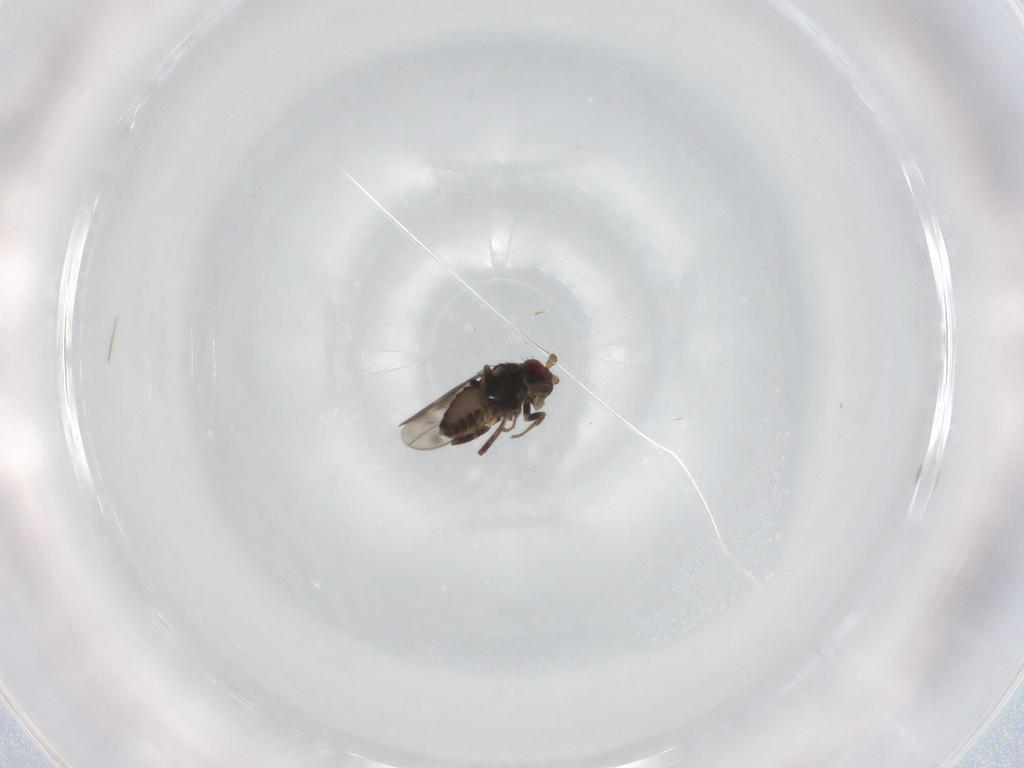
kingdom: Animalia
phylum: Arthropoda
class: Insecta
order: Diptera
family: Sphaeroceridae
